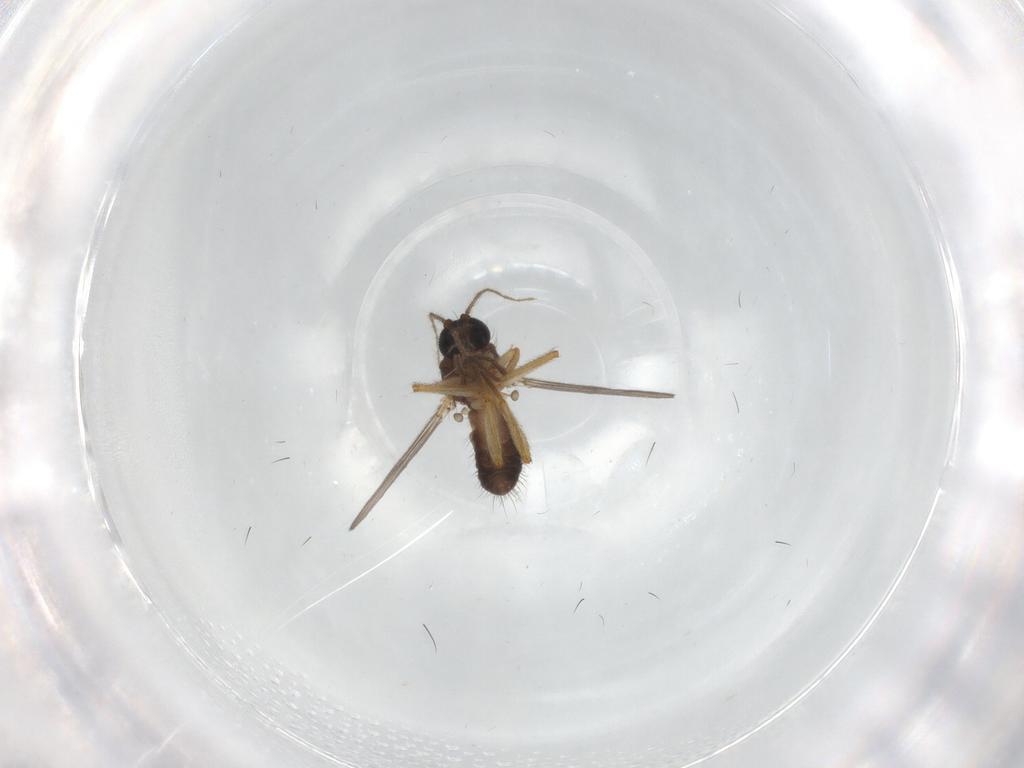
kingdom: Animalia
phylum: Arthropoda
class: Insecta
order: Diptera
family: Ceratopogonidae
